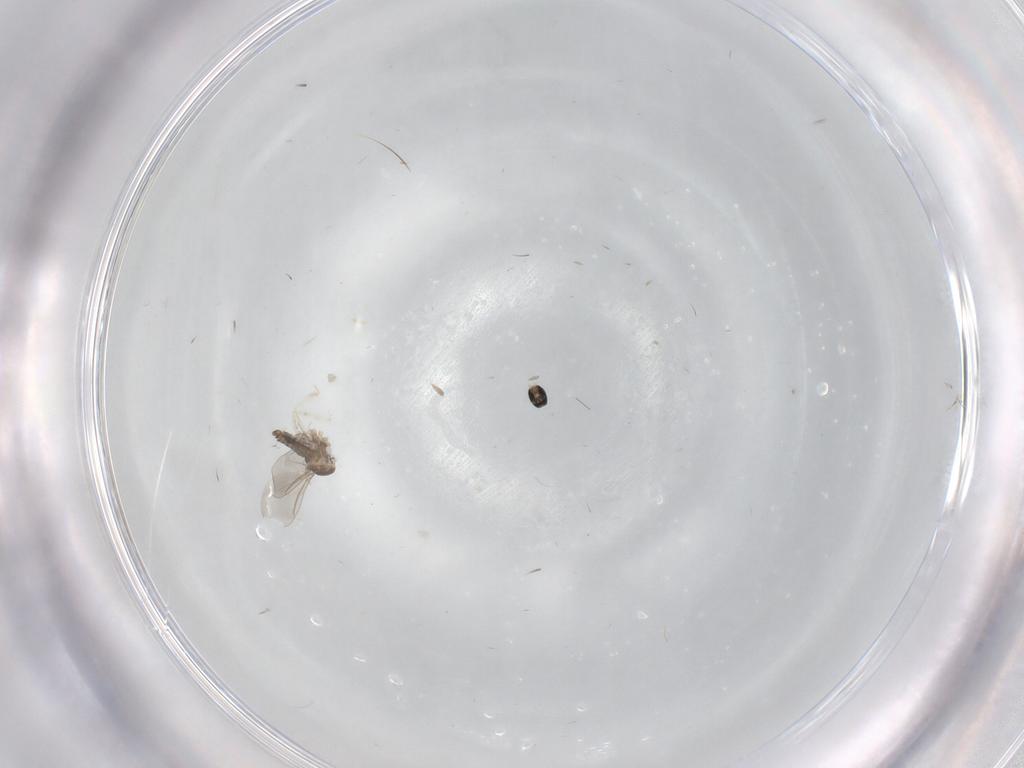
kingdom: Animalia
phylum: Arthropoda
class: Insecta
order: Diptera
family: Cecidomyiidae
